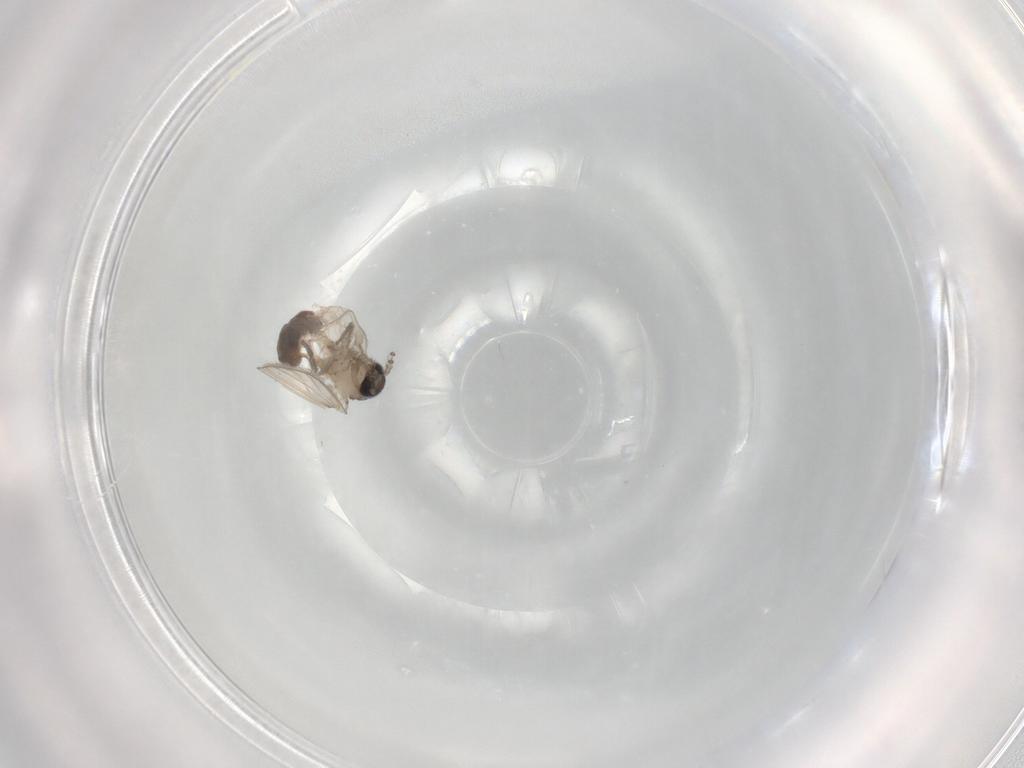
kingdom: Animalia
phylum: Arthropoda
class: Insecta
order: Diptera
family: Psychodidae
